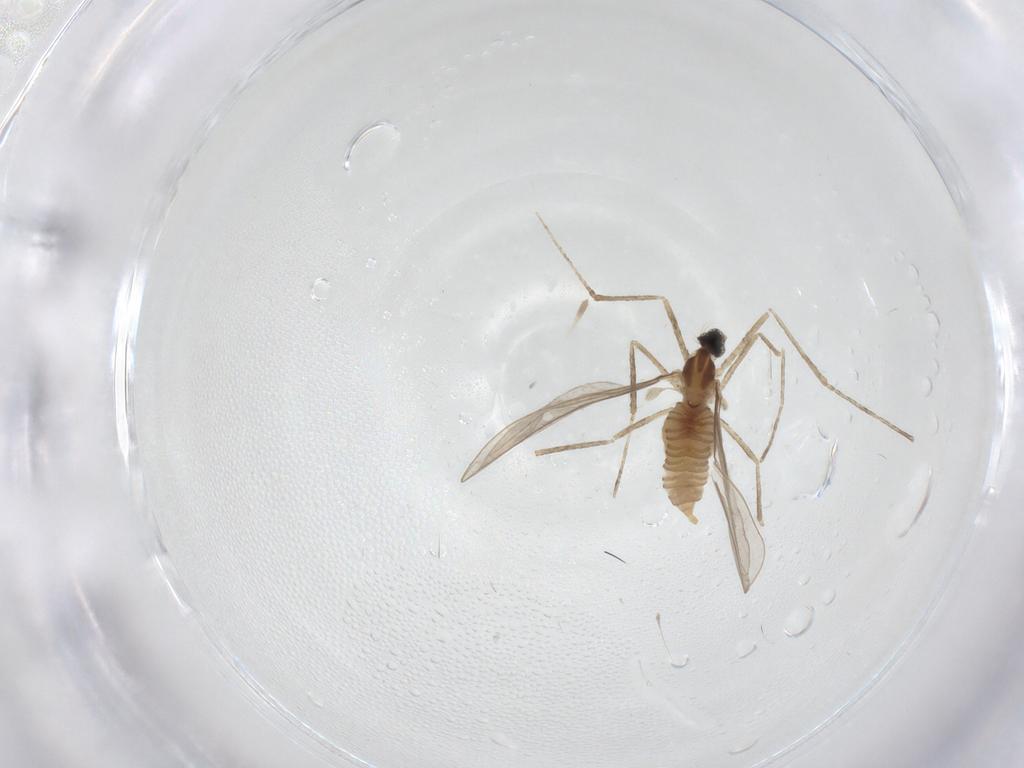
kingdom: Animalia
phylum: Arthropoda
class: Insecta
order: Diptera
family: Cecidomyiidae
